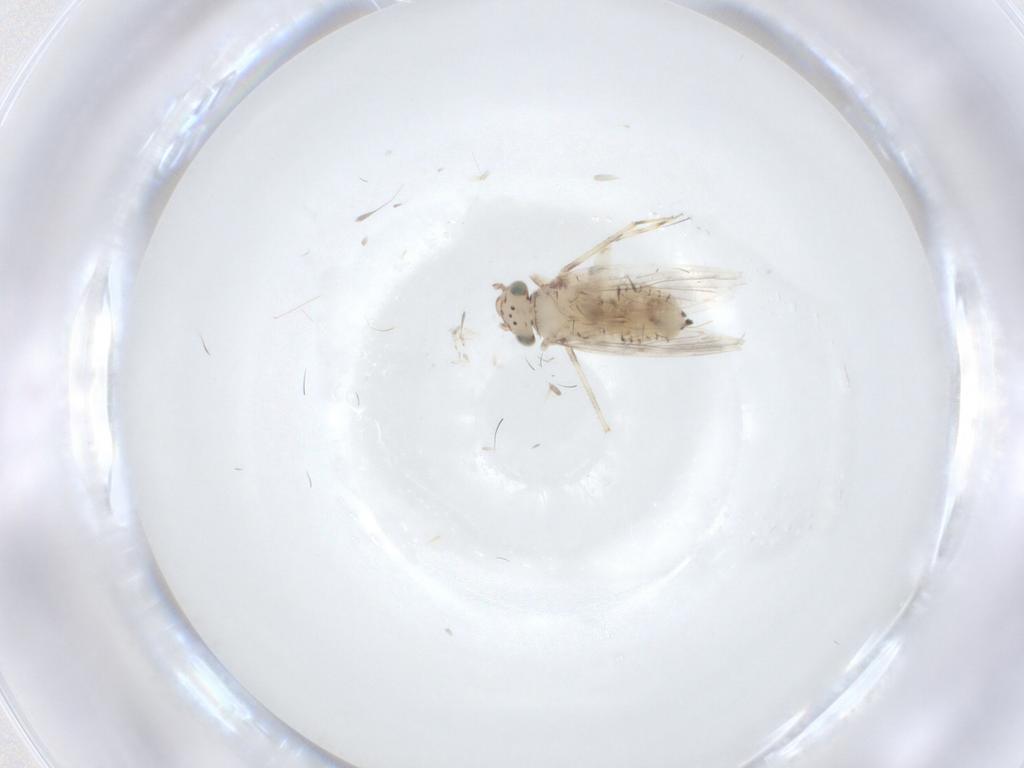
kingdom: Animalia
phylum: Arthropoda
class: Insecta
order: Psocodea
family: Lepidopsocidae
